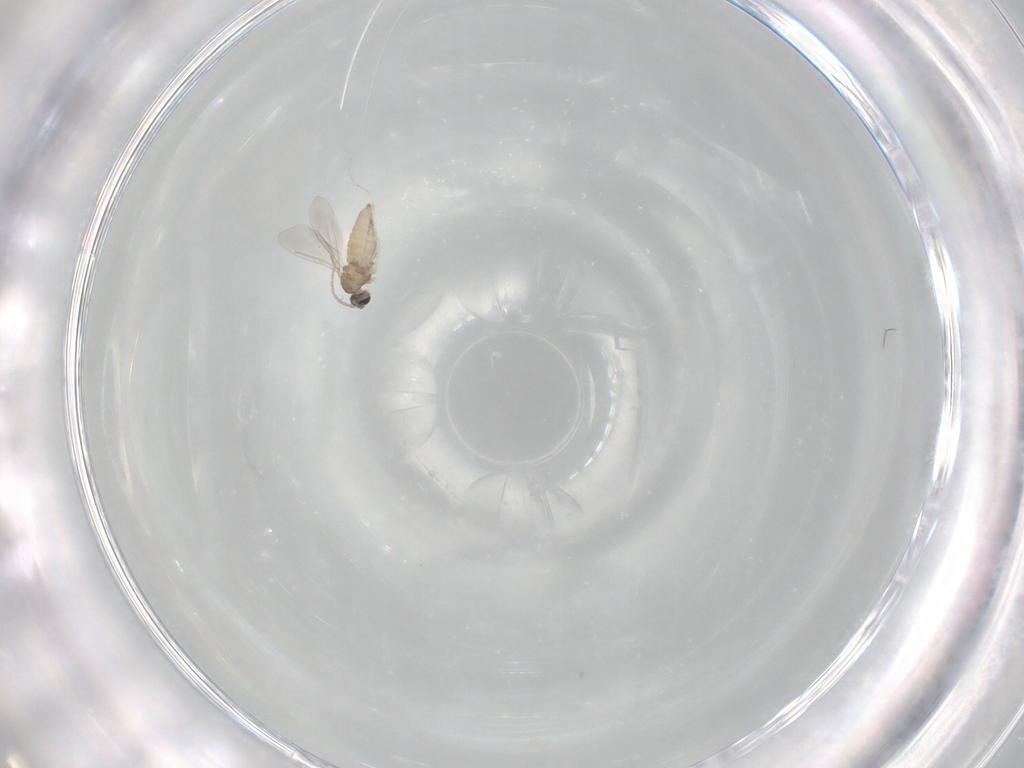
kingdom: Animalia
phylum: Arthropoda
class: Insecta
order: Diptera
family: Cecidomyiidae
